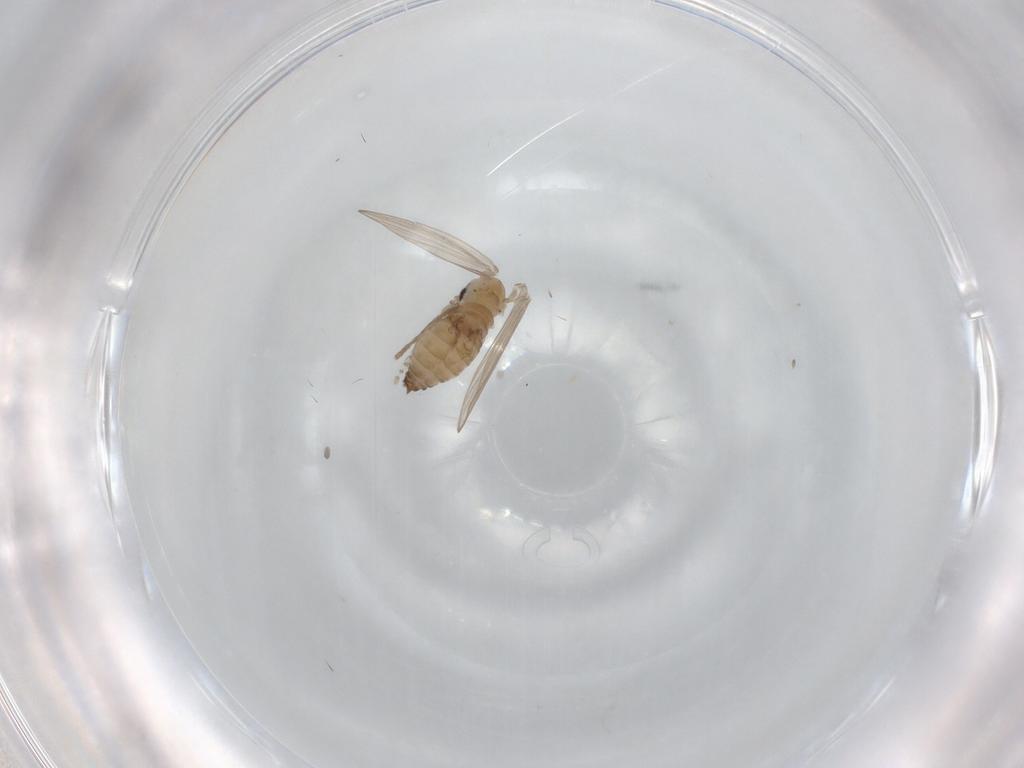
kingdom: Animalia
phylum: Arthropoda
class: Insecta
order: Diptera
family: Psychodidae
